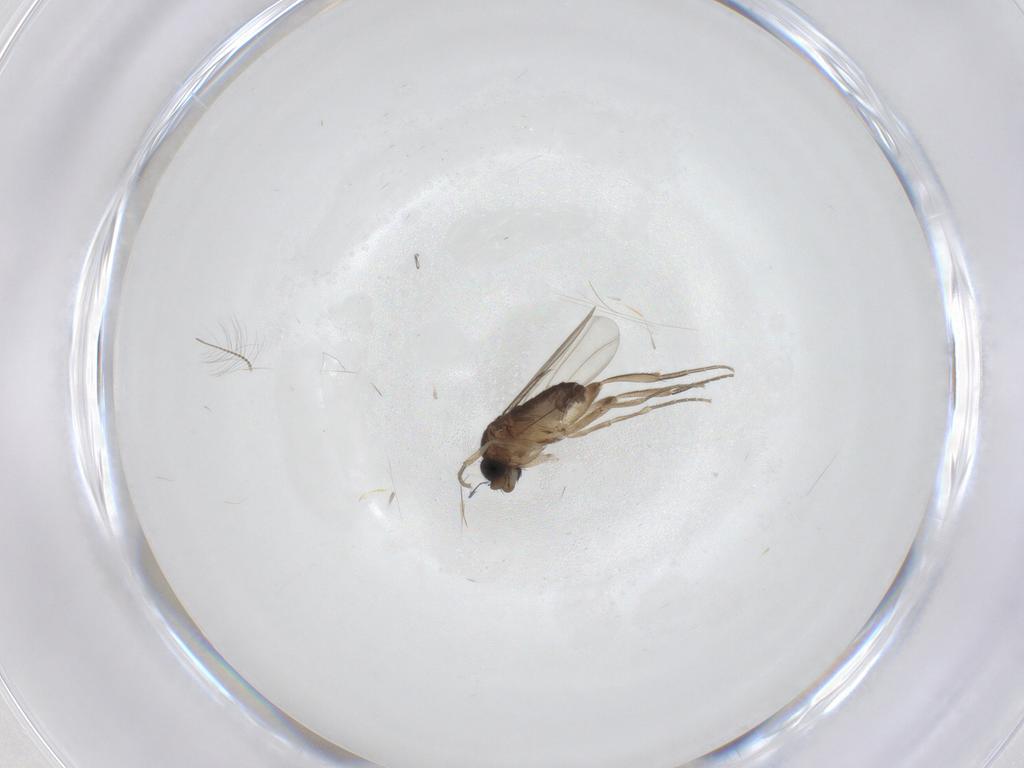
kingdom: Animalia
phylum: Arthropoda
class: Insecta
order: Diptera
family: Phoridae
